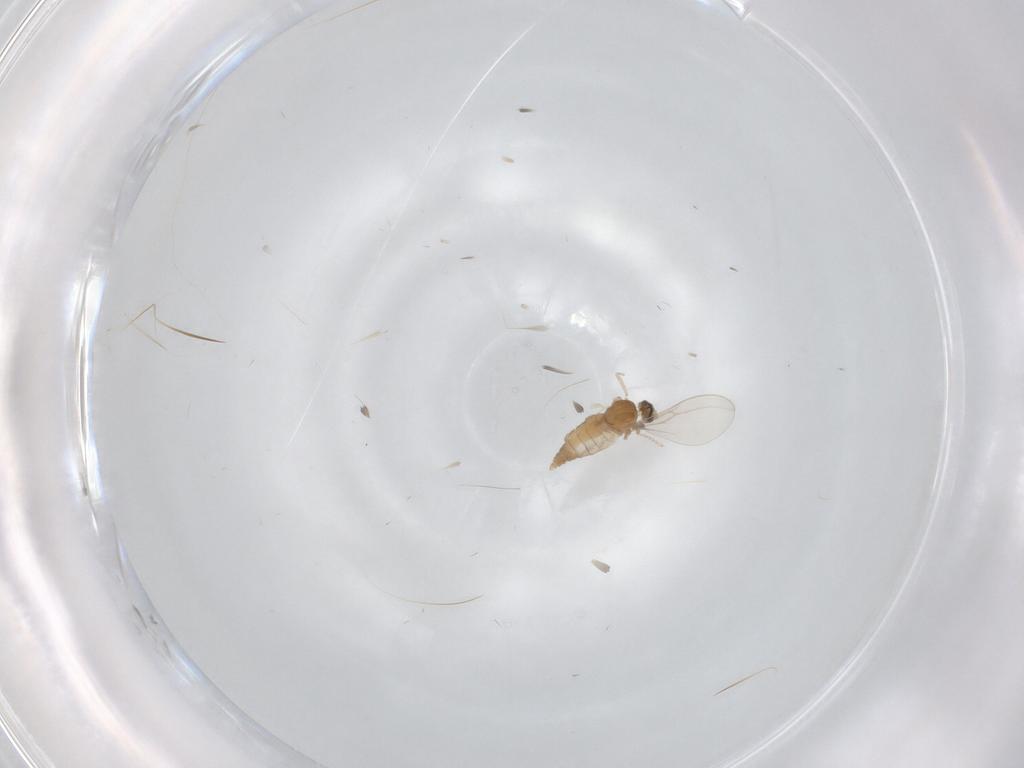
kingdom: Animalia
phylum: Arthropoda
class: Insecta
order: Diptera
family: Cecidomyiidae
